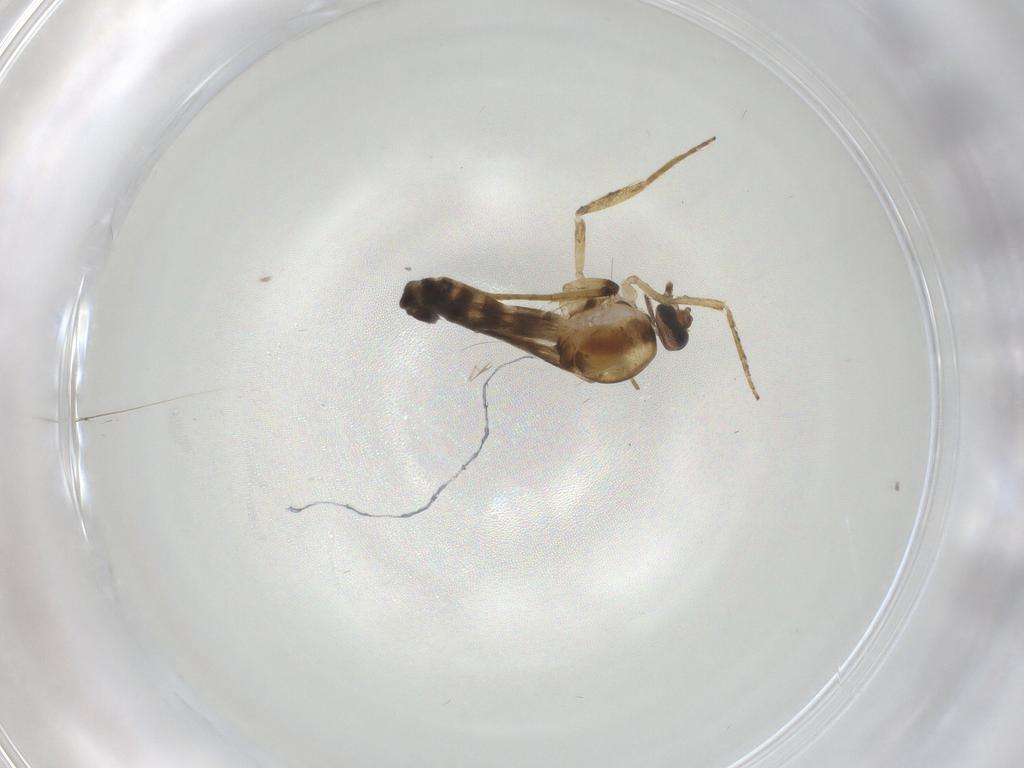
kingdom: Animalia
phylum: Arthropoda
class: Insecta
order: Diptera
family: Ceratopogonidae
